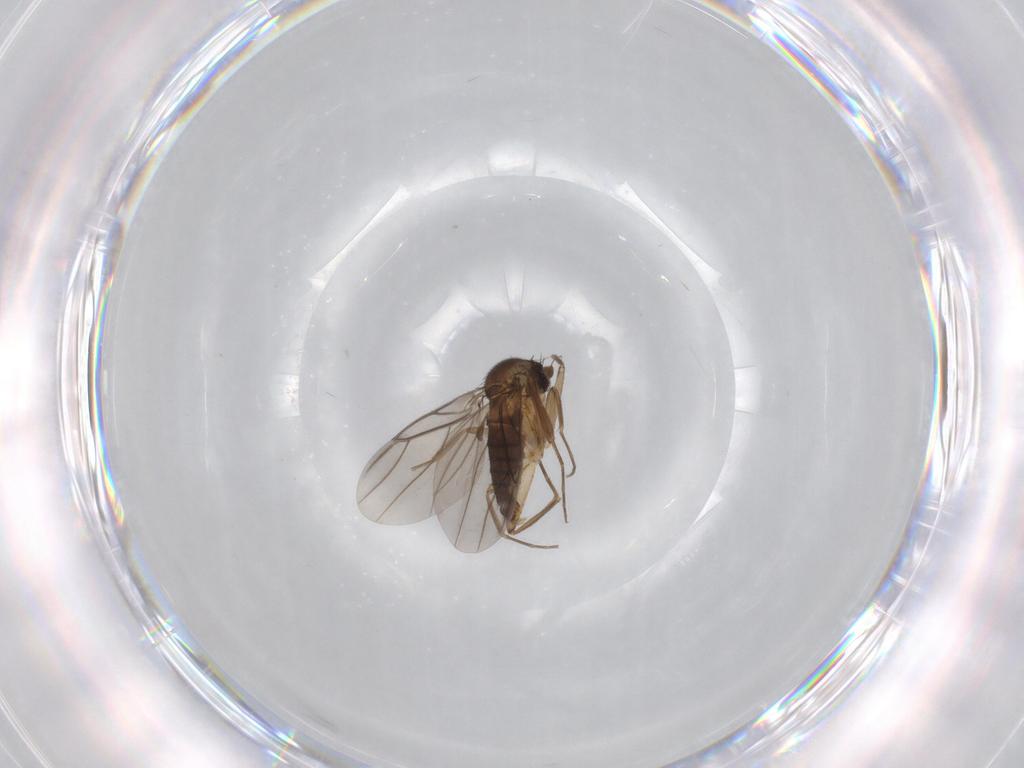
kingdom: Animalia
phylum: Arthropoda
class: Insecta
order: Diptera
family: Phoridae
